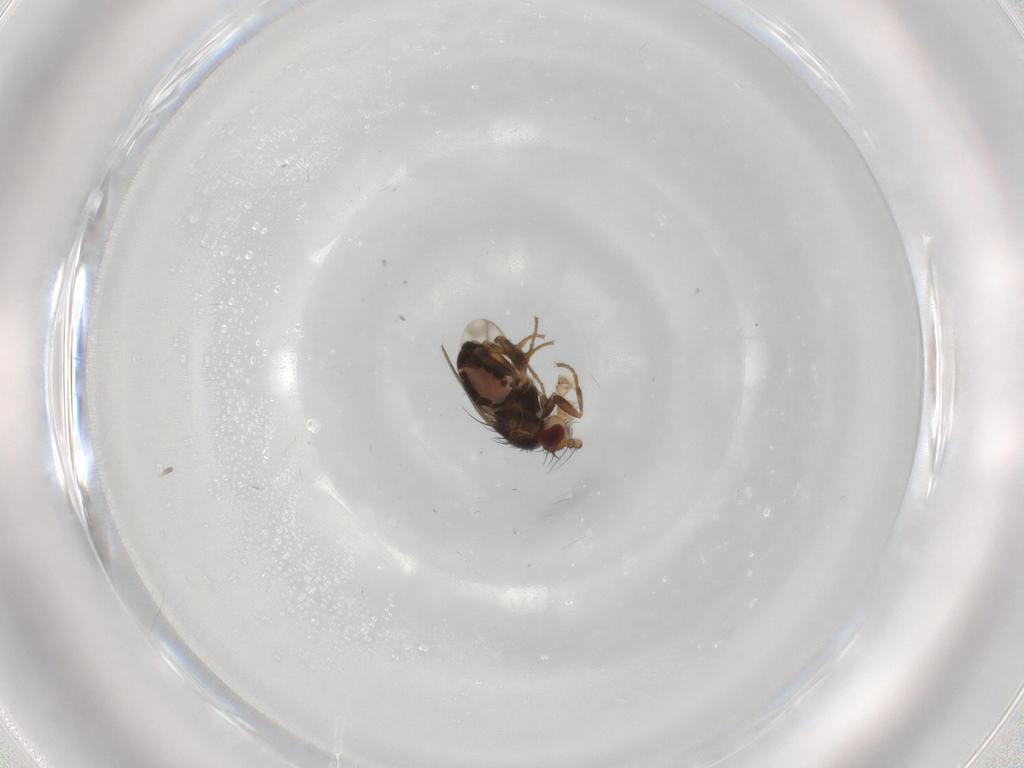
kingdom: Animalia
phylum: Arthropoda
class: Insecta
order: Diptera
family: Sphaeroceridae
